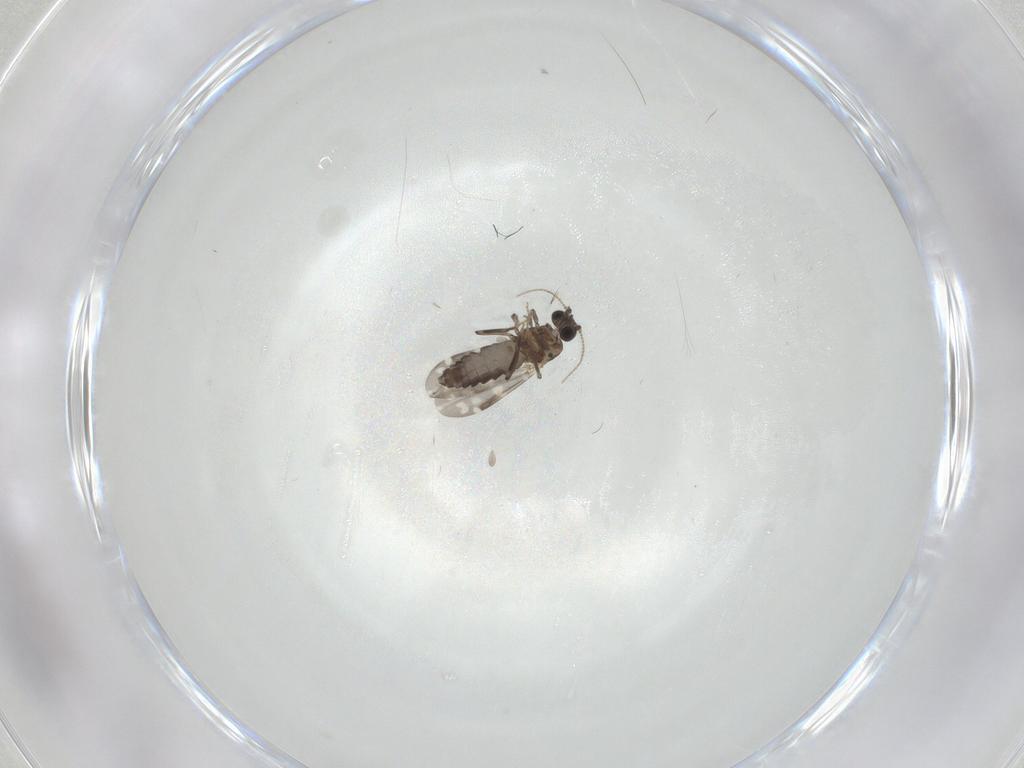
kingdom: Animalia
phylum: Arthropoda
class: Insecta
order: Diptera
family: Ceratopogonidae
